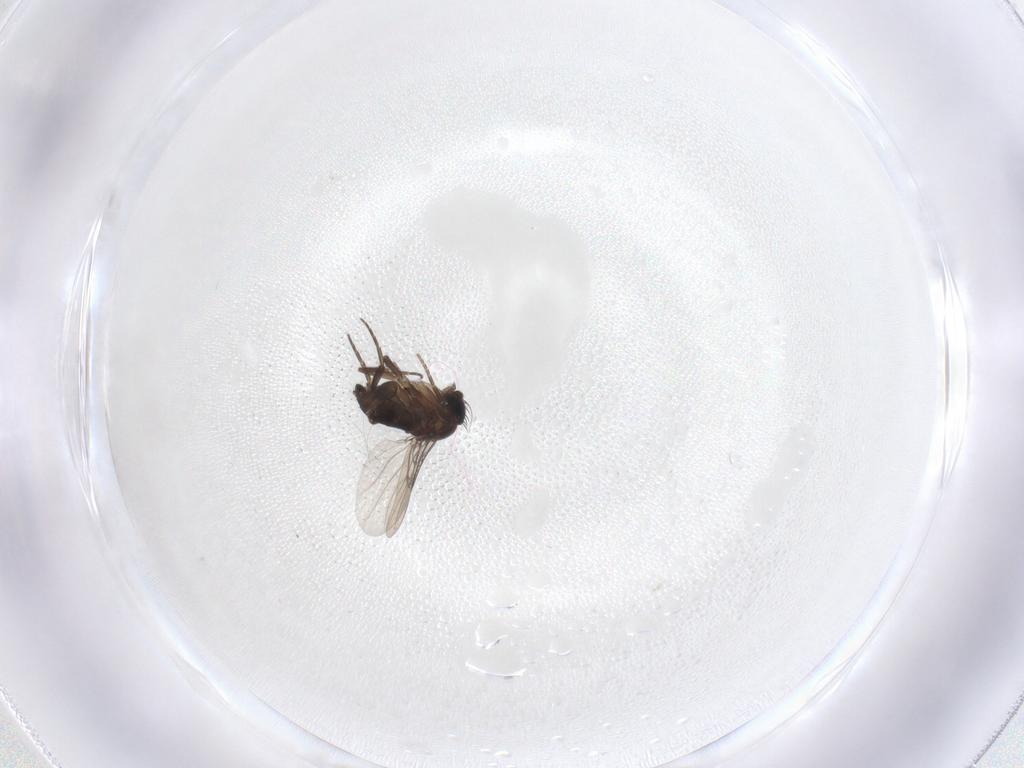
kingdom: Animalia
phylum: Arthropoda
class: Insecta
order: Diptera
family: Phoridae
